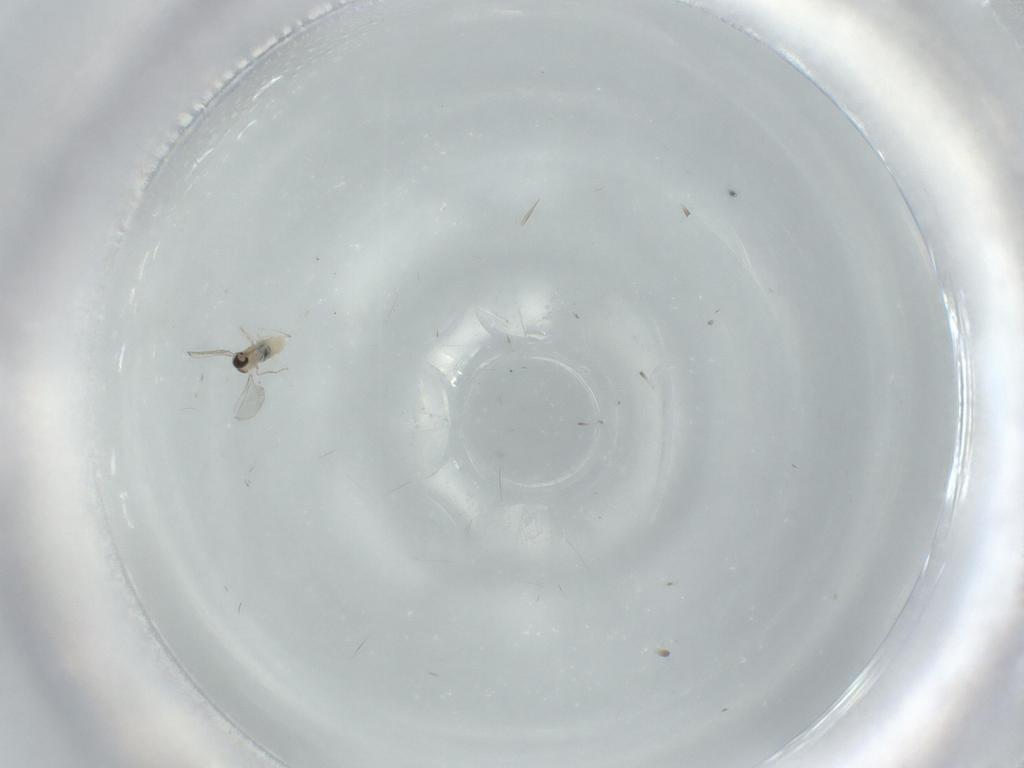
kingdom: Animalia
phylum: Arthropoda
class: Insecta
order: Diptera
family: Cecidomyiidae
